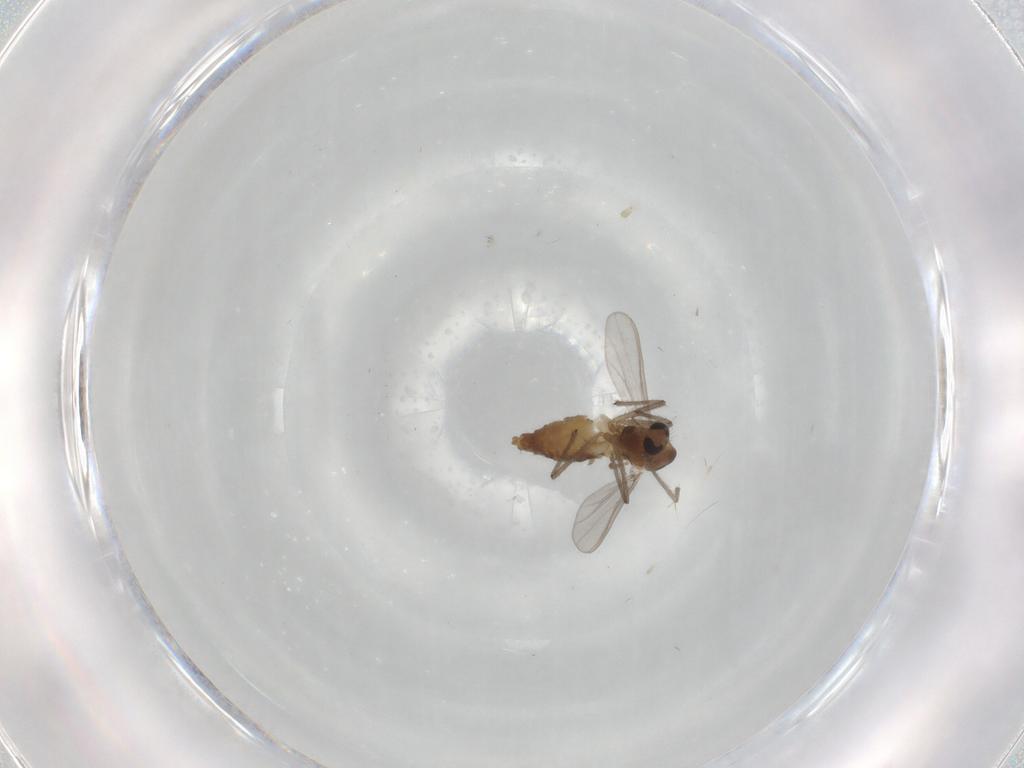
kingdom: Animalia
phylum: Arthropoda
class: Insecta
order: Diptera
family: Chironomidae
